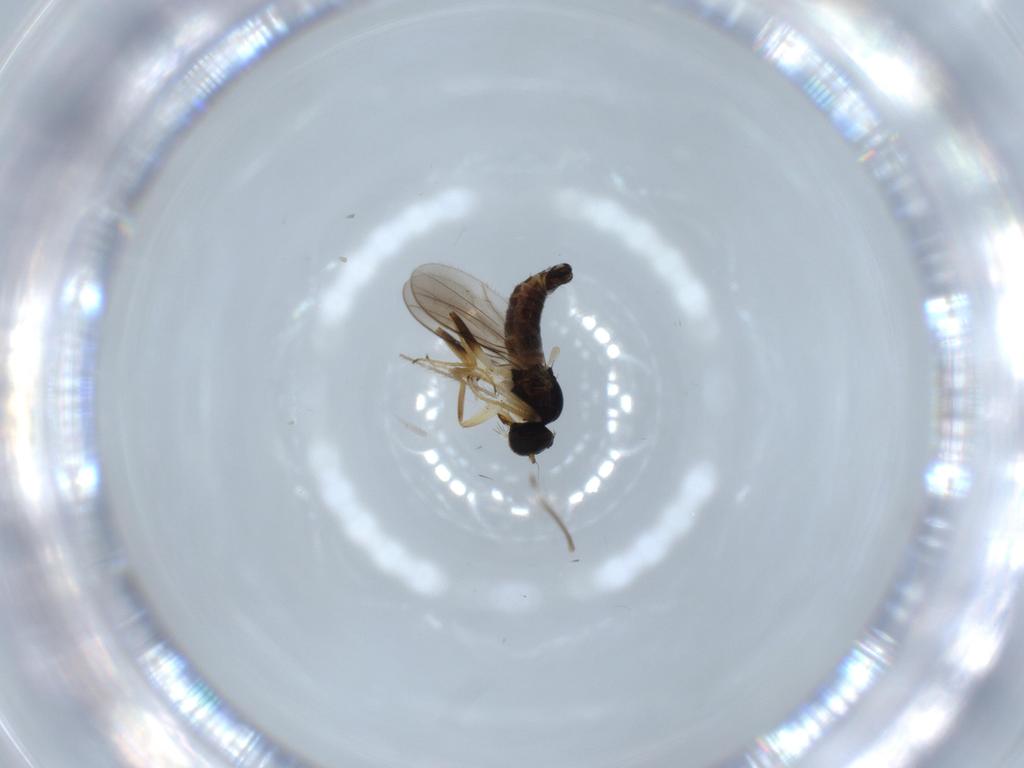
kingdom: Animalia
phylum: Arthropoda
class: Insecta
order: Diptera
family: Hybotidae
